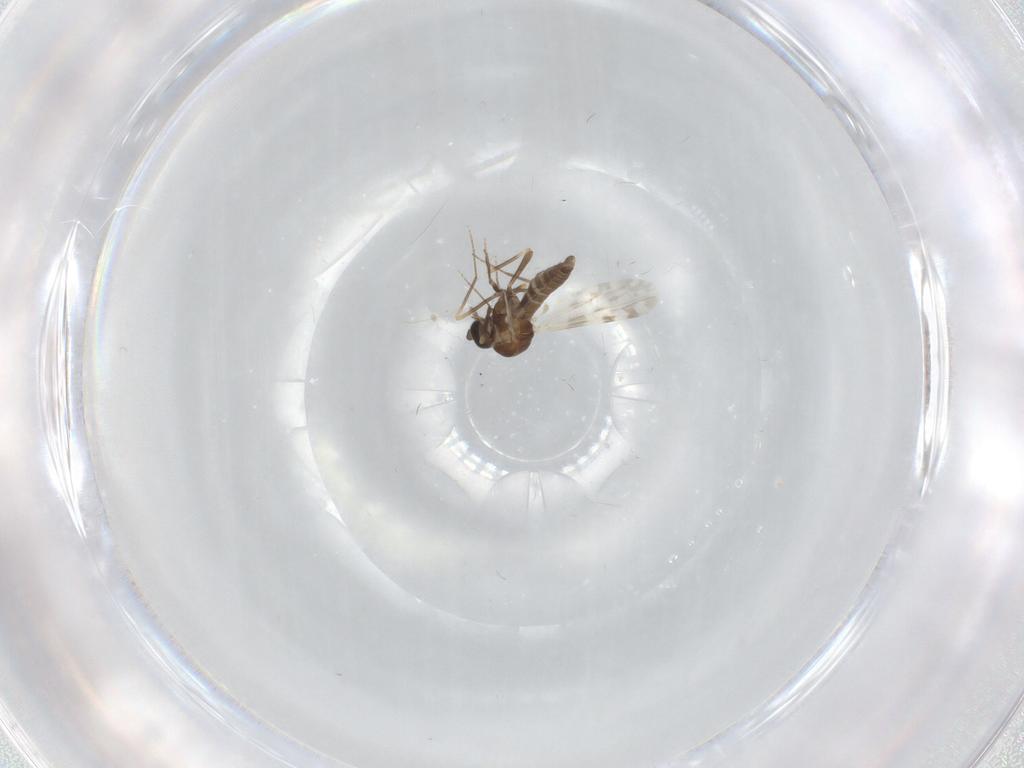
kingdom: Animalia
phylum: Arthropoda
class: Insecta
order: Diptera
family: Ceratopogonidae
